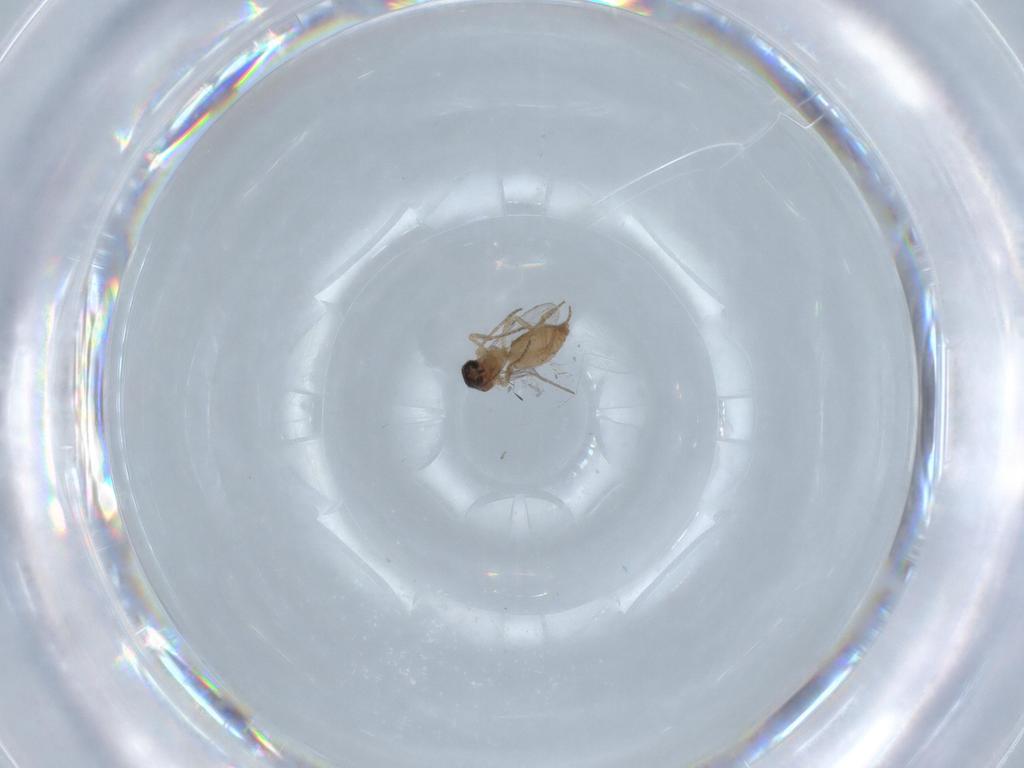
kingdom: Animalia
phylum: Arthropoda
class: Insecta
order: Diptera
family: Ceratopogonidae
